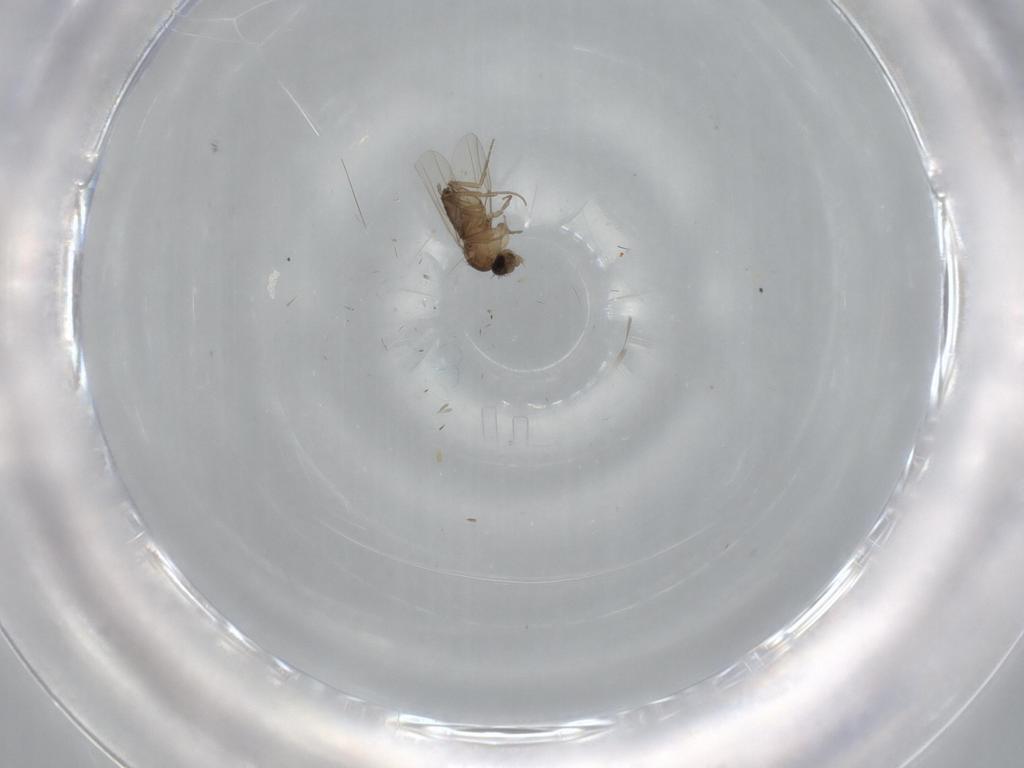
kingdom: Animalia
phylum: Arthropoda
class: Insecta
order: Diptera
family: Phoridae
